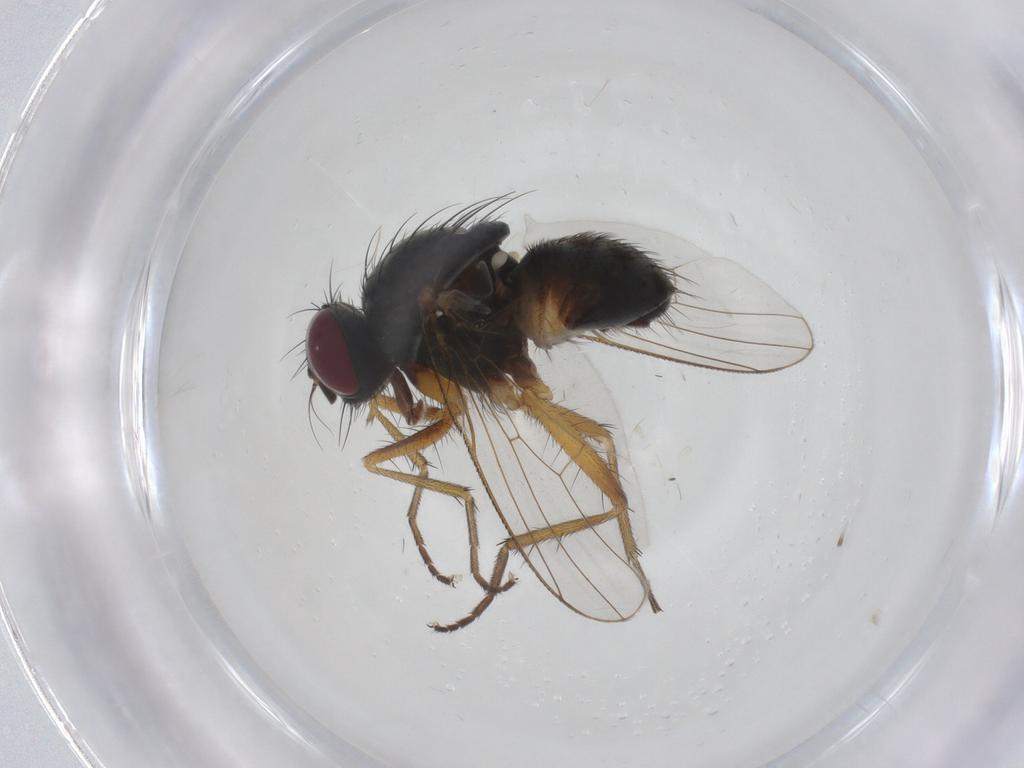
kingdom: Animalia
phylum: Arthropoda
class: Insecta
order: Diptera
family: Muscidae
